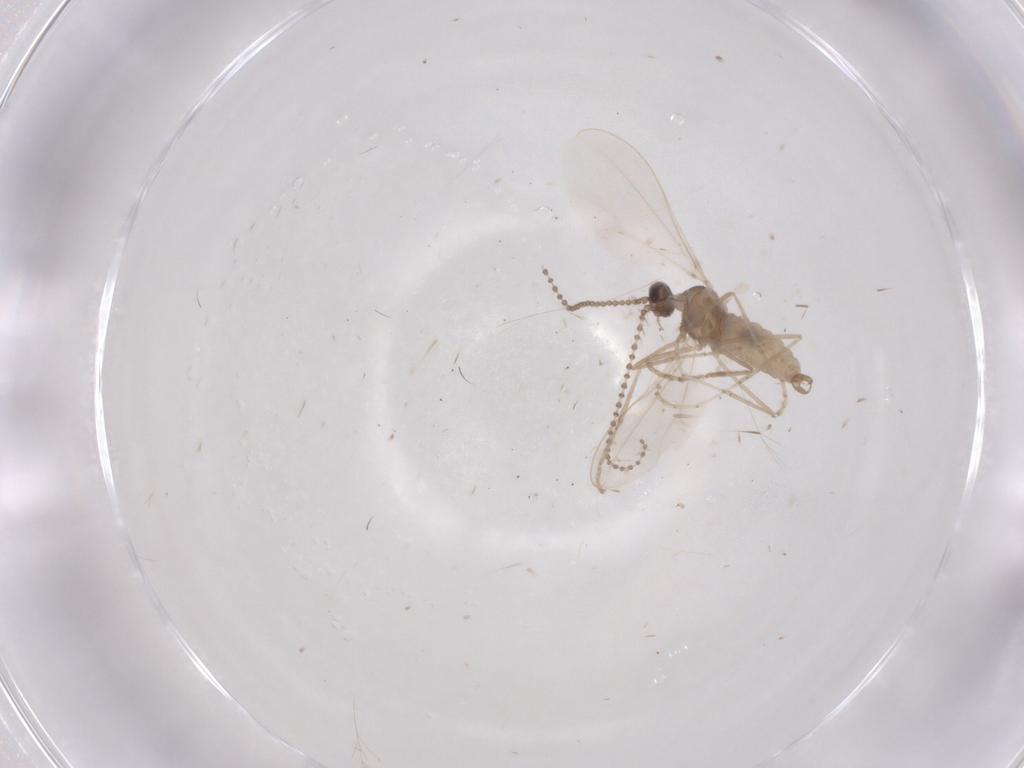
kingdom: Animalia
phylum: Arthropoda
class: Insecta
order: Diptera
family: Cecidomyiidae
